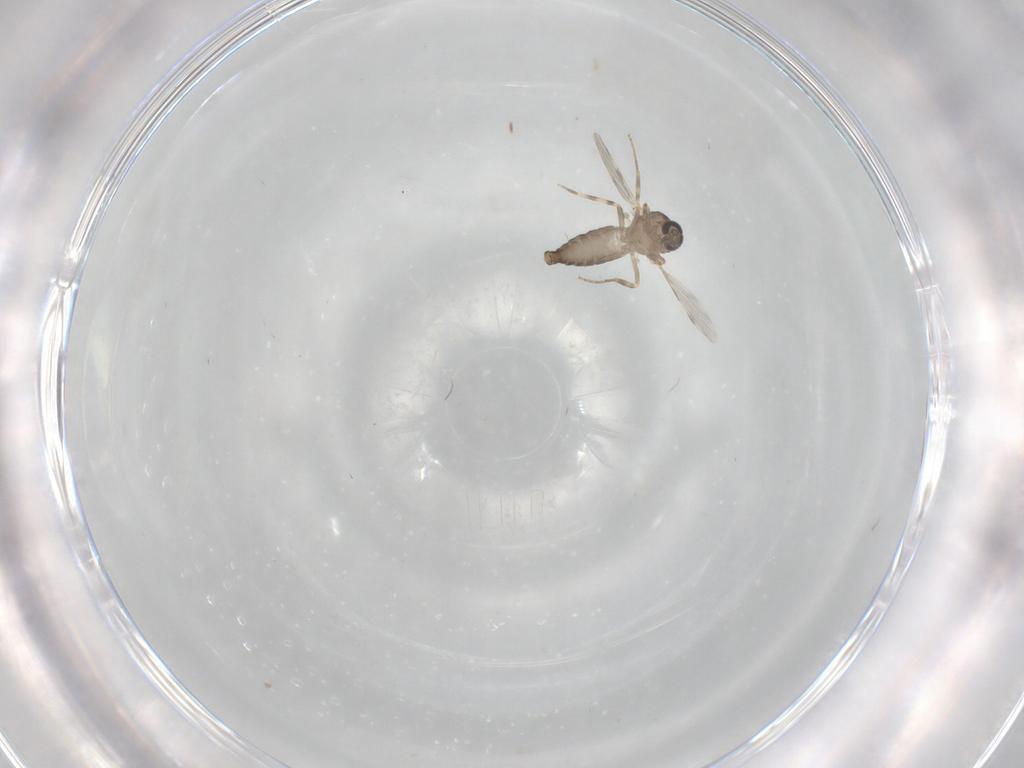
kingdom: Animalia
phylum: Arthropoda
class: Insecta
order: Diptera
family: Ceratopogonidae
